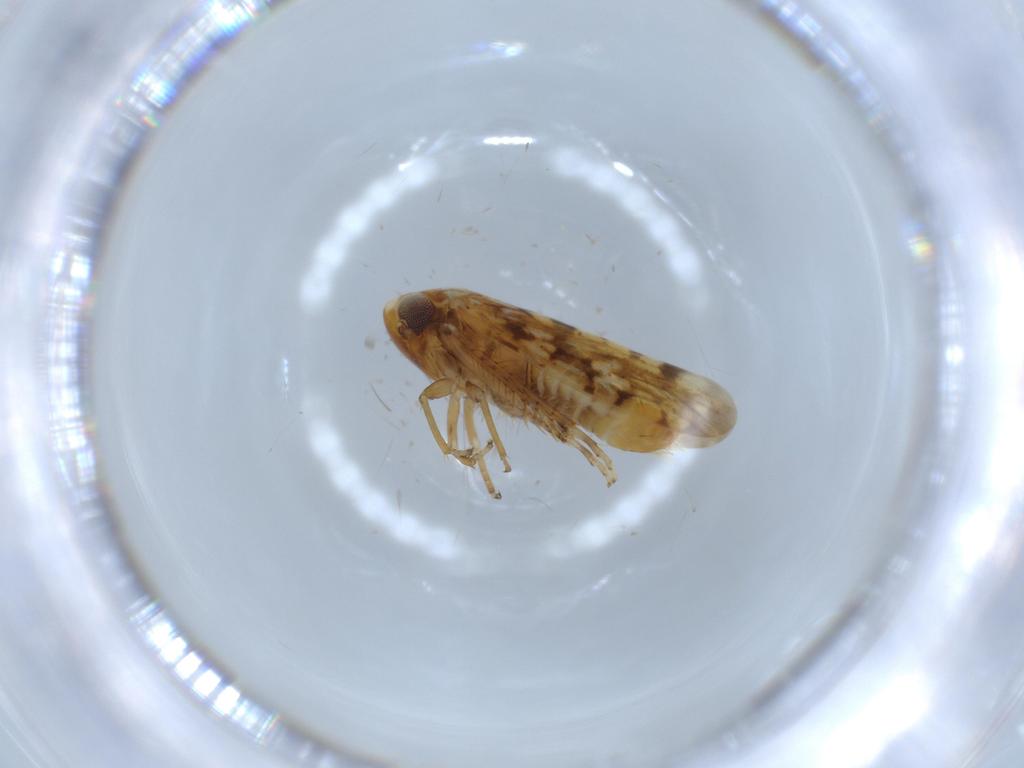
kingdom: Animalia
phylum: Arthropoda
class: Insecta
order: Hemiptera
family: Cicadellidae
